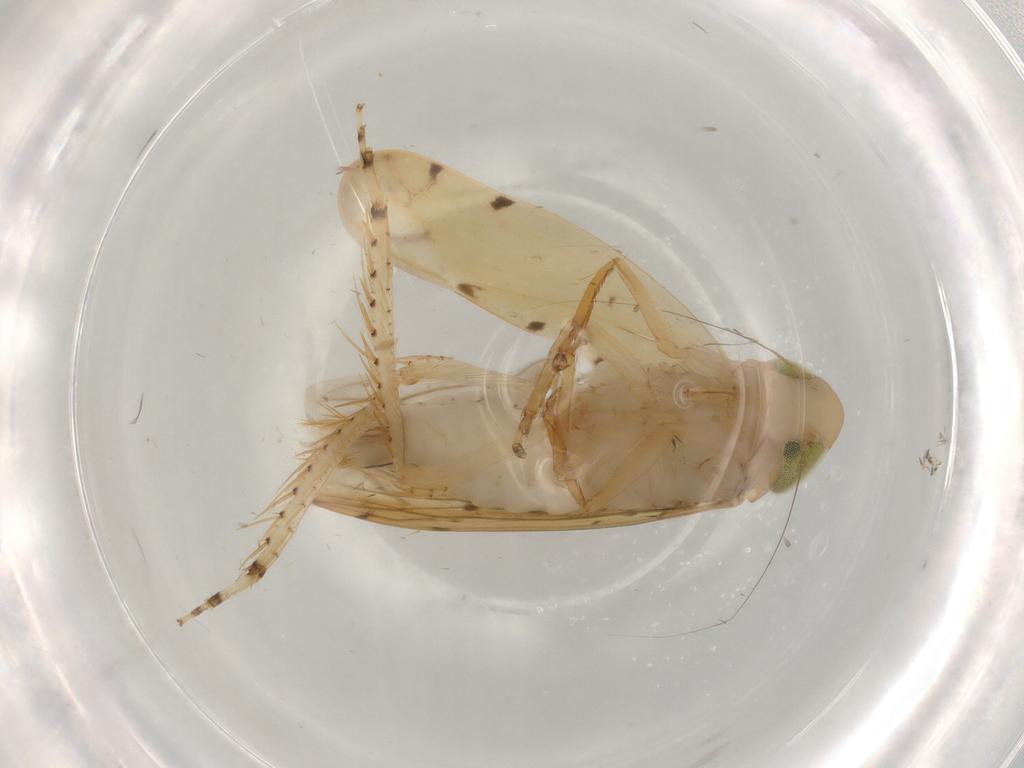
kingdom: Animalia
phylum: Arthropoda
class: Insecta
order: Hemiptera
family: Cicadellidae
